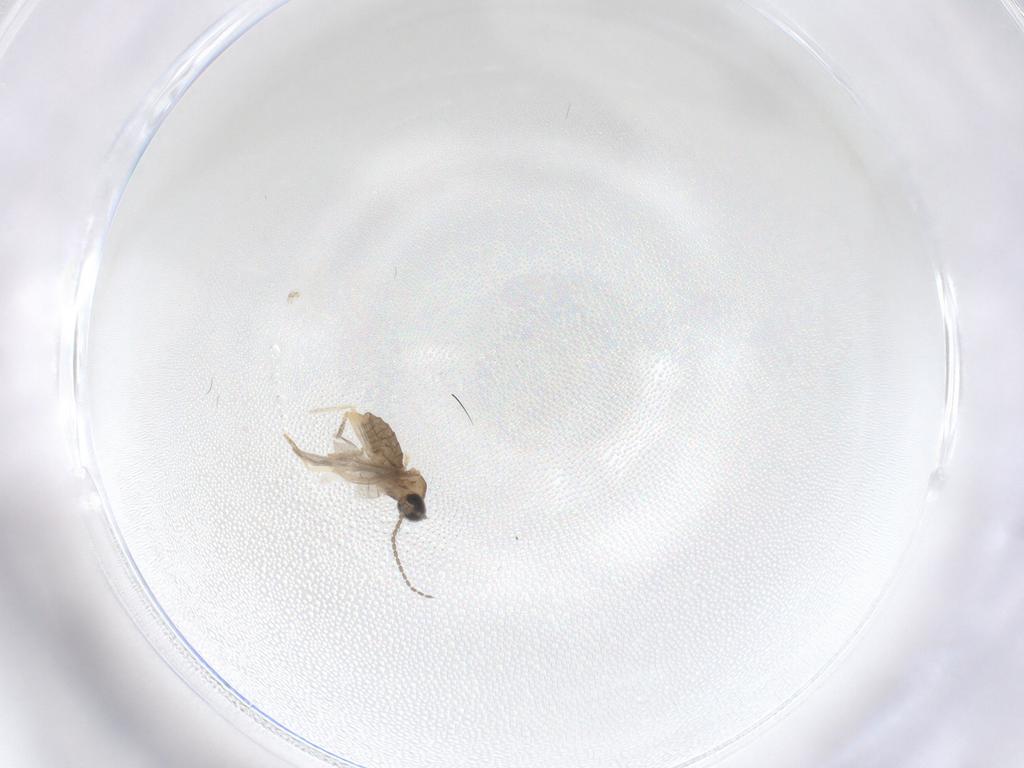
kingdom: Animalia
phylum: Arthropoda
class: Insecta
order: Diptera
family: Cecidomyiidae
